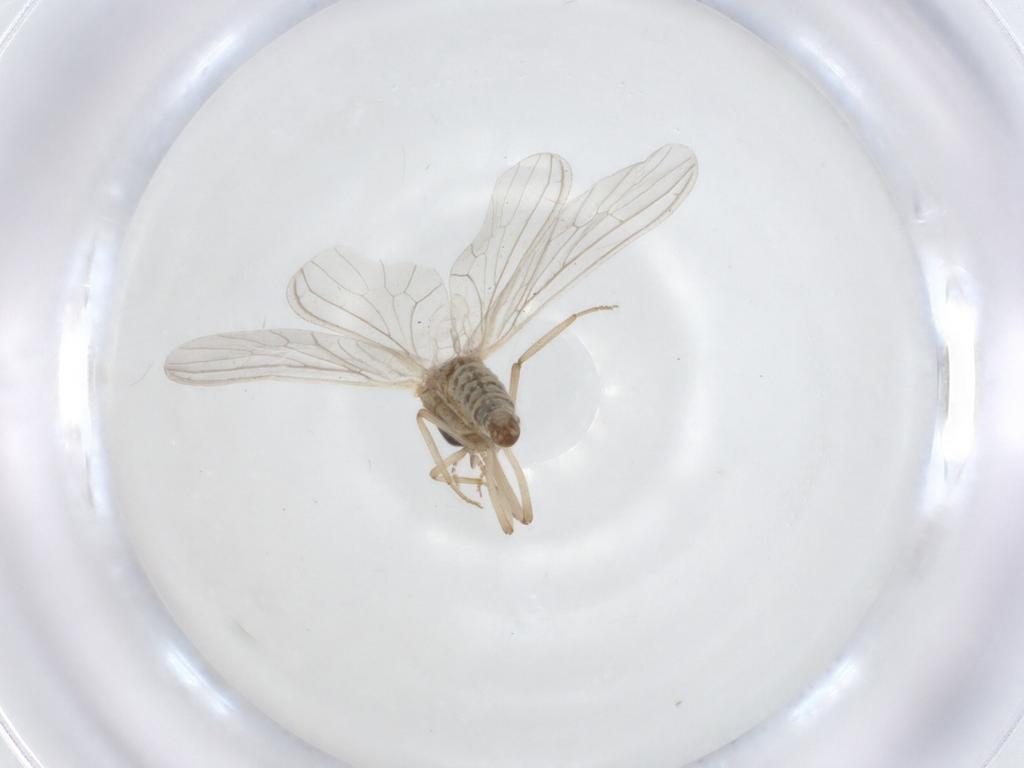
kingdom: Animalia
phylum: Arthropoda
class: Insecta
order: Neuroptera
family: Coniopterygidae
